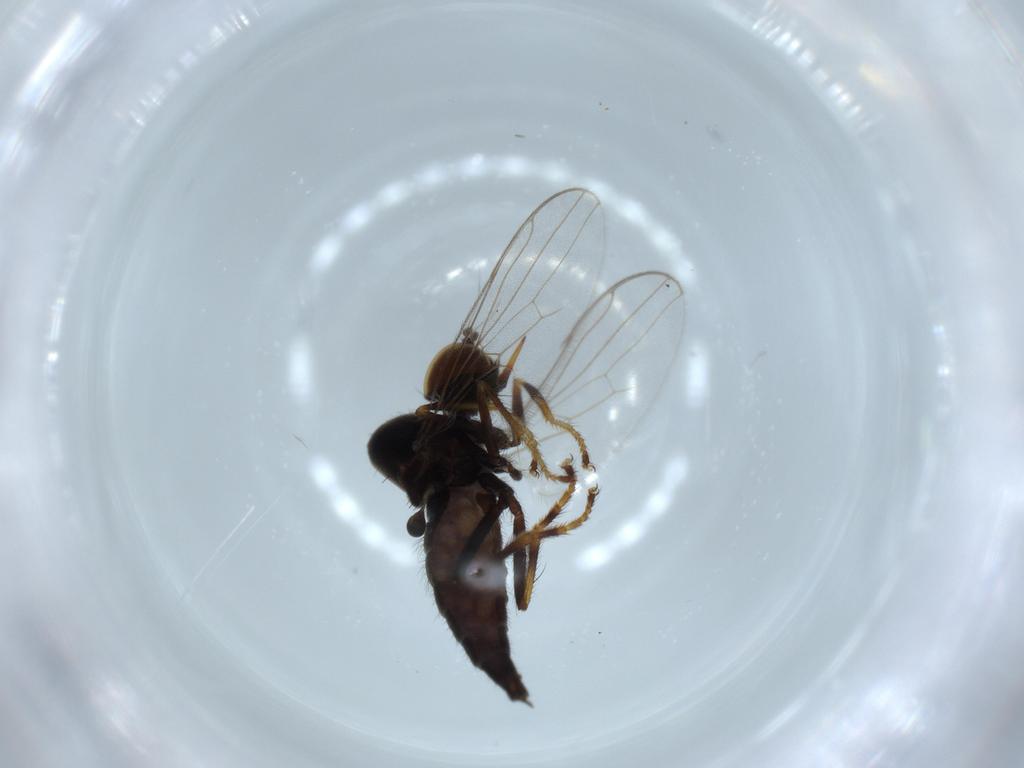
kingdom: Animalia
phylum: Arthropoda
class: Insecta
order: Diptera
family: Hybotidae
